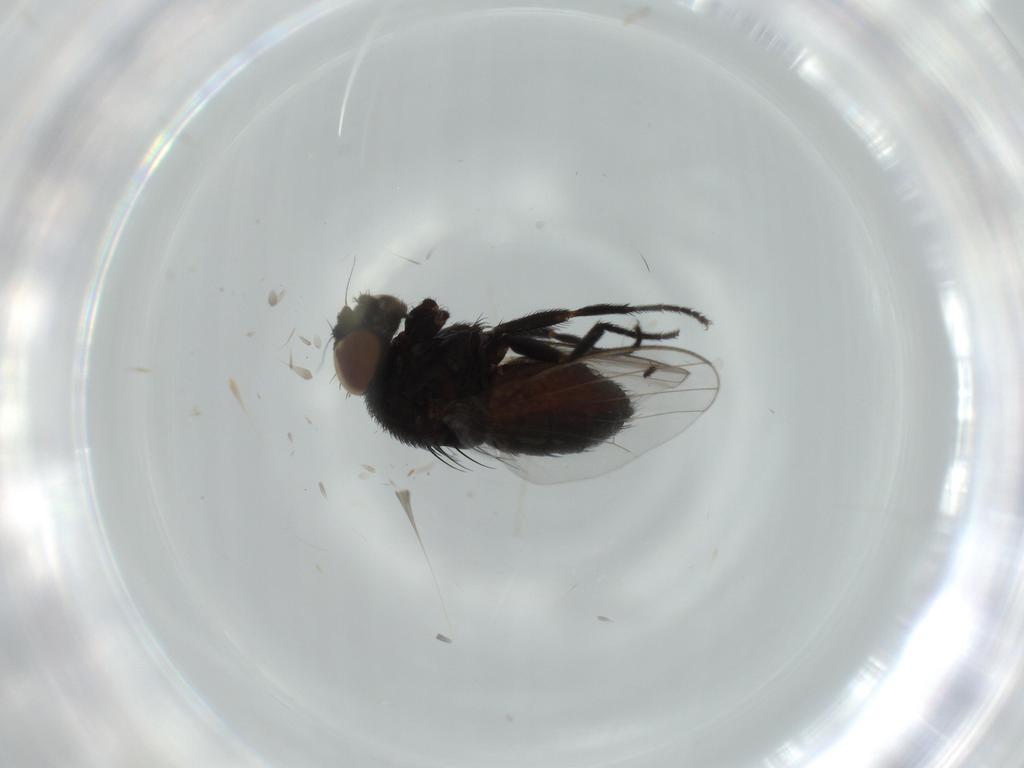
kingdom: Animalia
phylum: Arthropoda
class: Insecta
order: Diptera
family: Milichiidae
